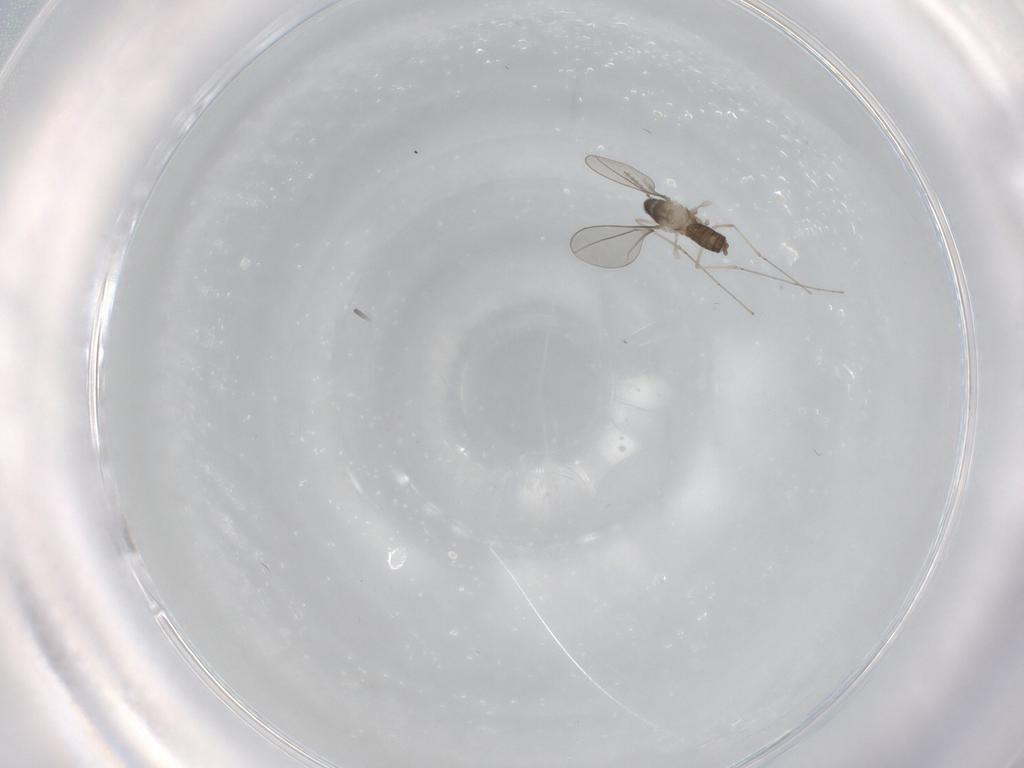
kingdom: Animalia
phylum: Arthropoda
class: Insecta
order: Diptera
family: Cecidomyiidae
